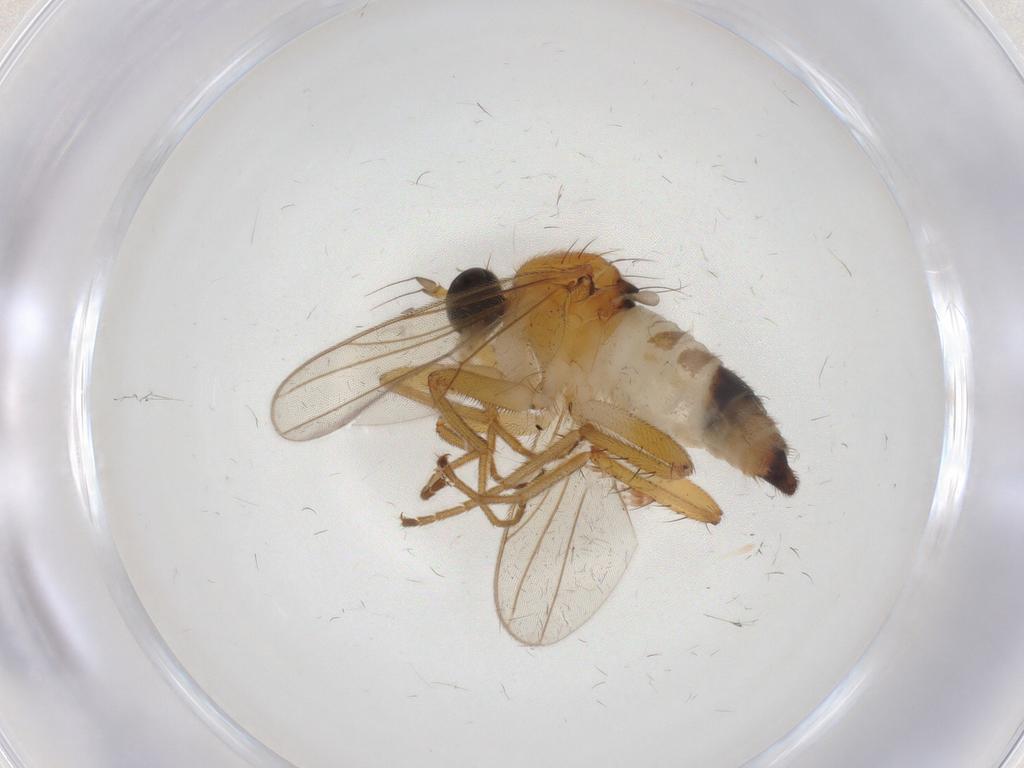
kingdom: Animalia
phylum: Arthropoda
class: Insecta
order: Diptera
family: Hybotidae
